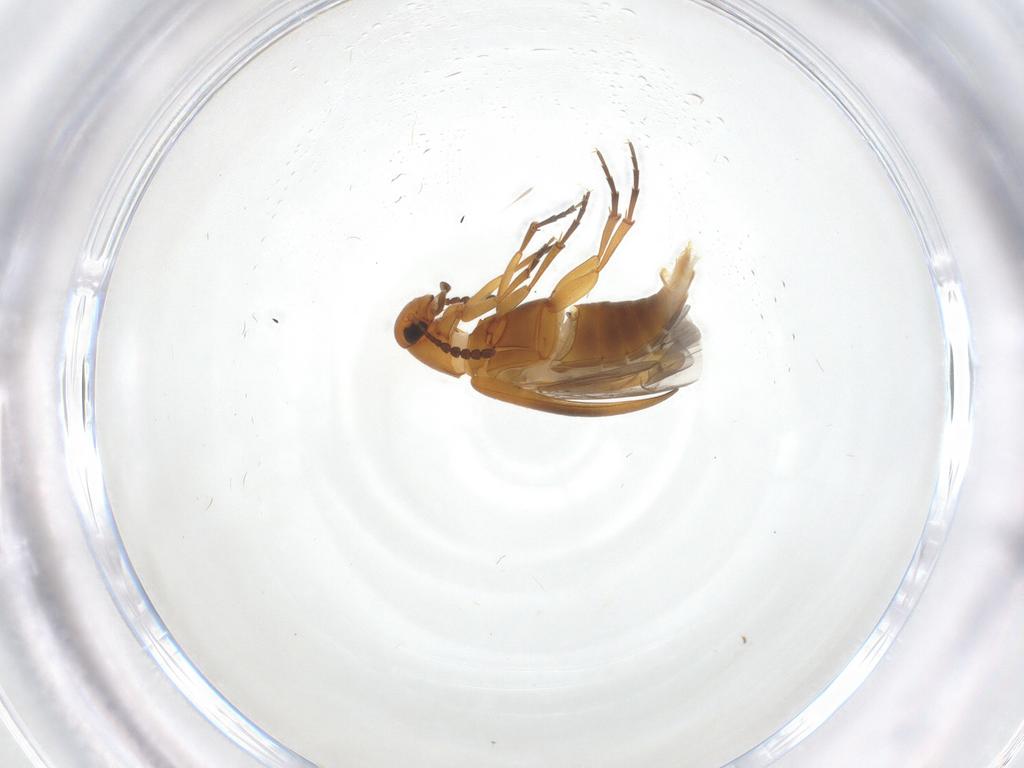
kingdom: Animalia
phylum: Arthropoda
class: Insecta
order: Coleoptera
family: Scraptiidae
